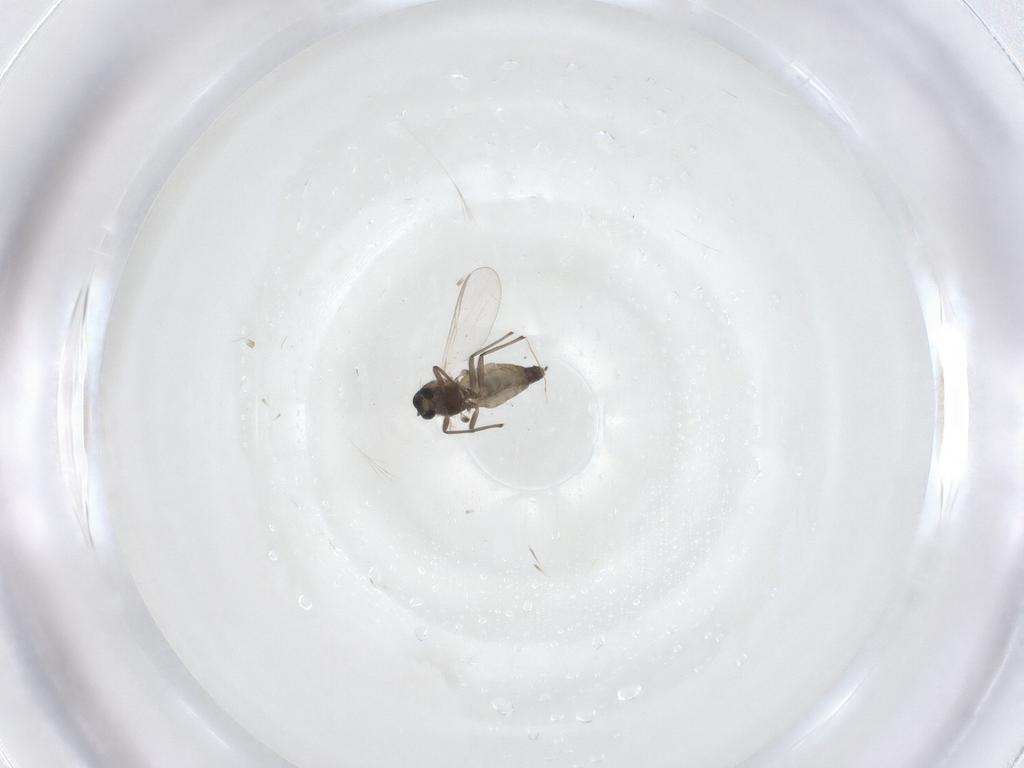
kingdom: Animalia
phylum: Arthropoda
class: Insecta
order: Diptera
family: Chironomidae
